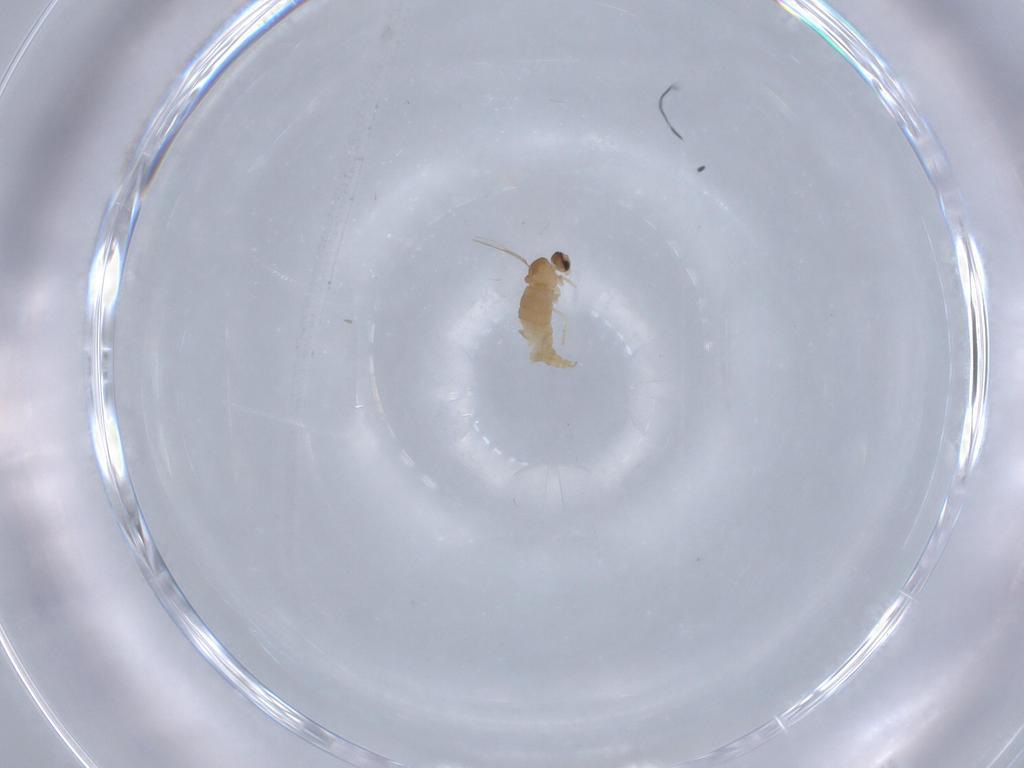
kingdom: Animalia
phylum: Arthropoda
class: Insecta
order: Diptera
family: Cecidomyiidae
